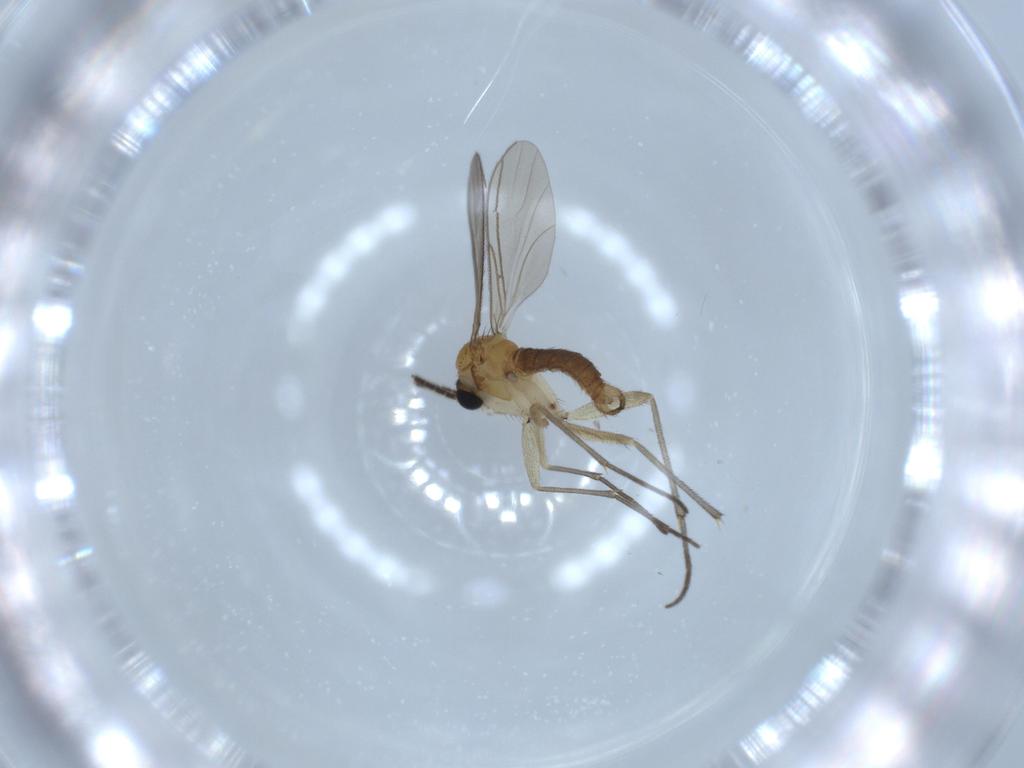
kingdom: Animalia
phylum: Arthropoda
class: Insecta
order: Diptera
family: Sciaridae
